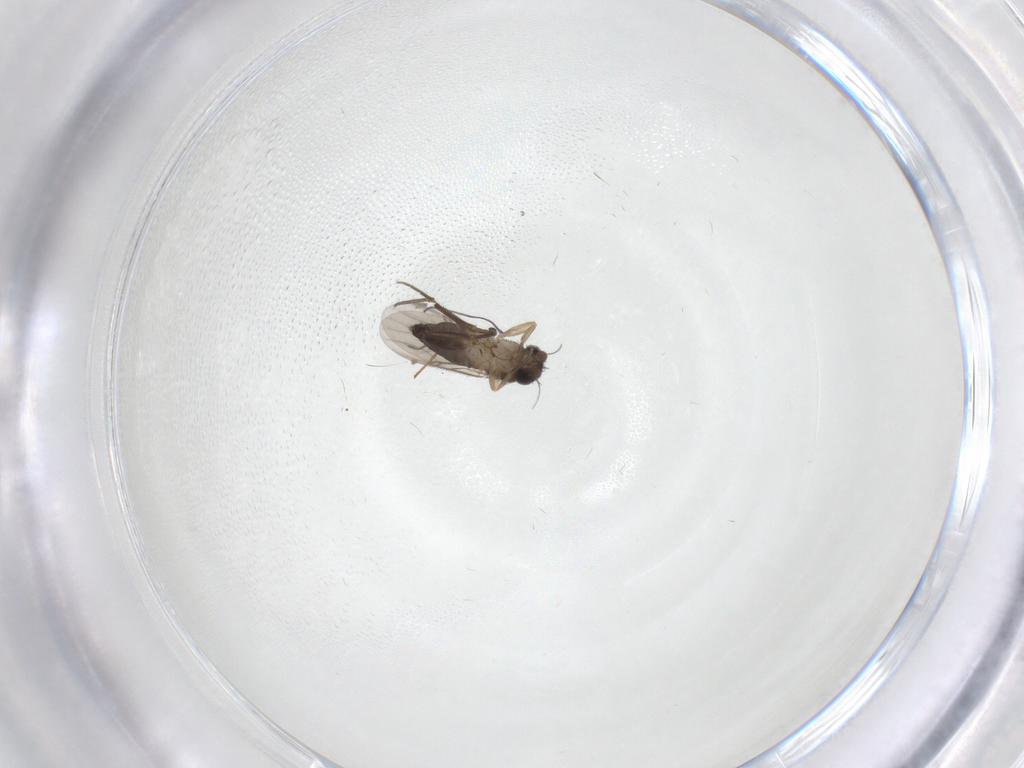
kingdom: Animalia
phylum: Arthropoda
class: Insecta
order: Diptera
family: Phoridae
